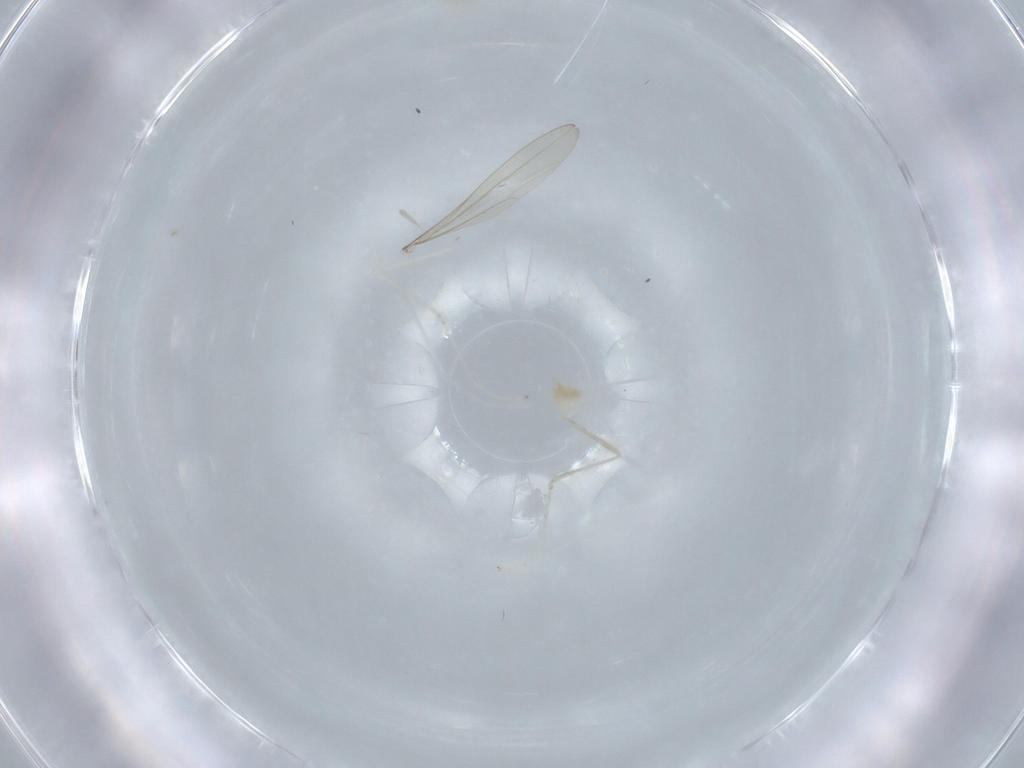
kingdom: Animalia
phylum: Arthropoda
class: Insecta
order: Diptera
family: Cecidomyiidae
